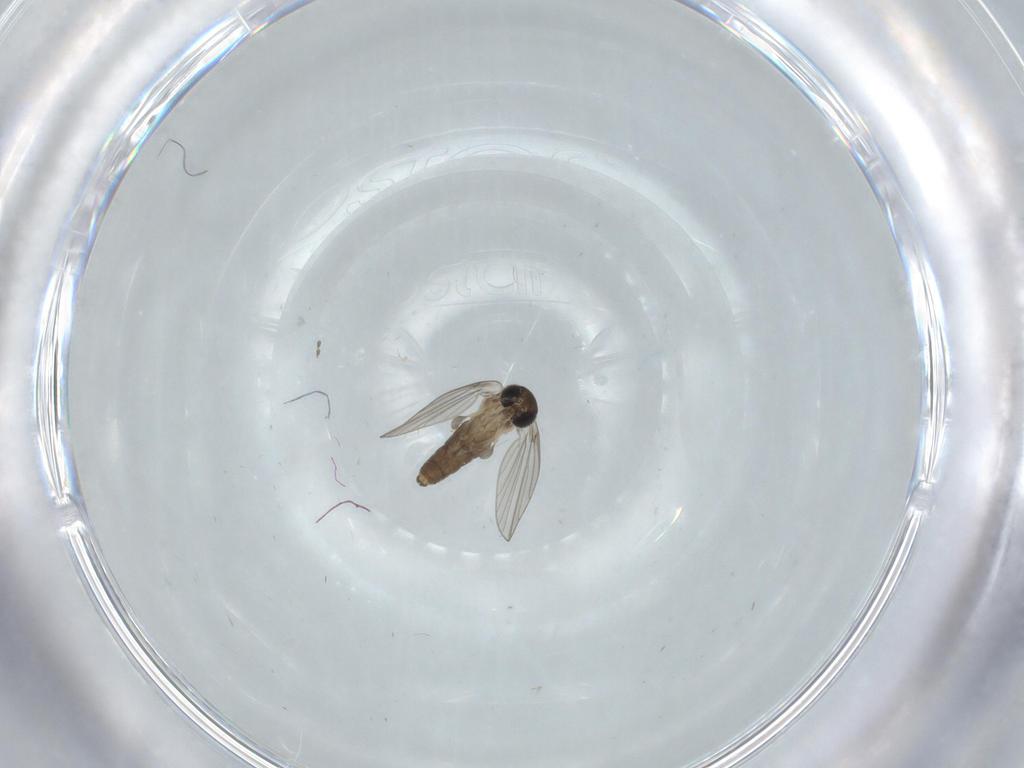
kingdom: Animalia
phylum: Arthropoda
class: Insecta
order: Diptera
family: Psychodidae
